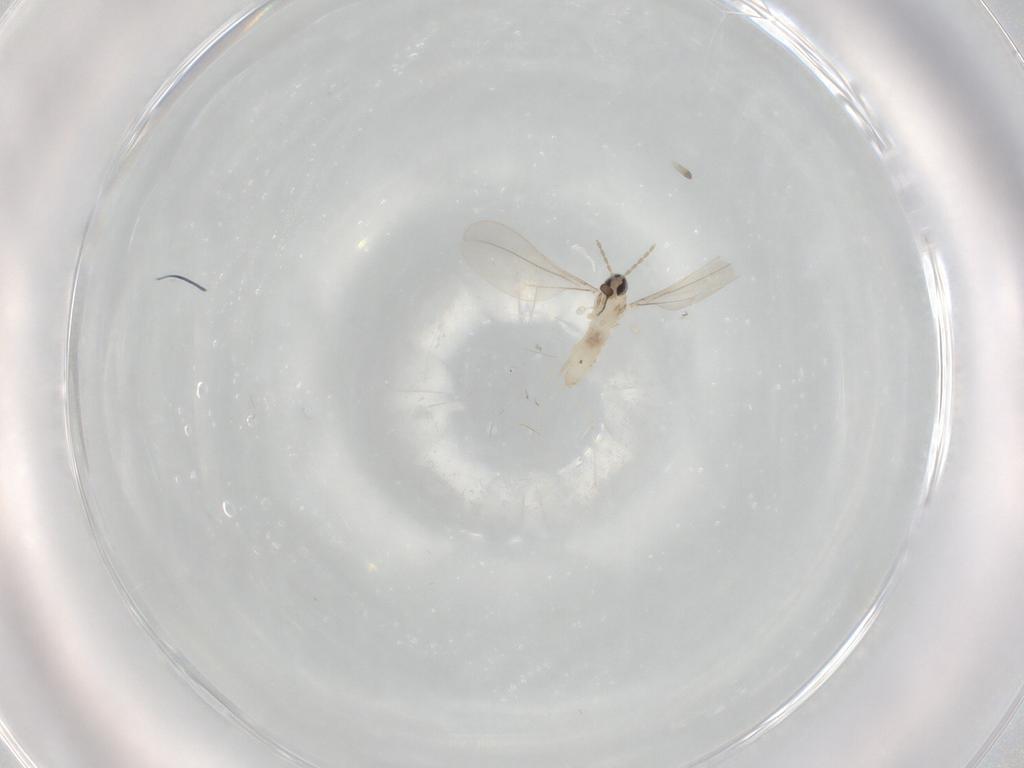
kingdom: Animalia
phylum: Arthropoda
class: Insecta
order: Diptera
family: Cecidomyiidae
